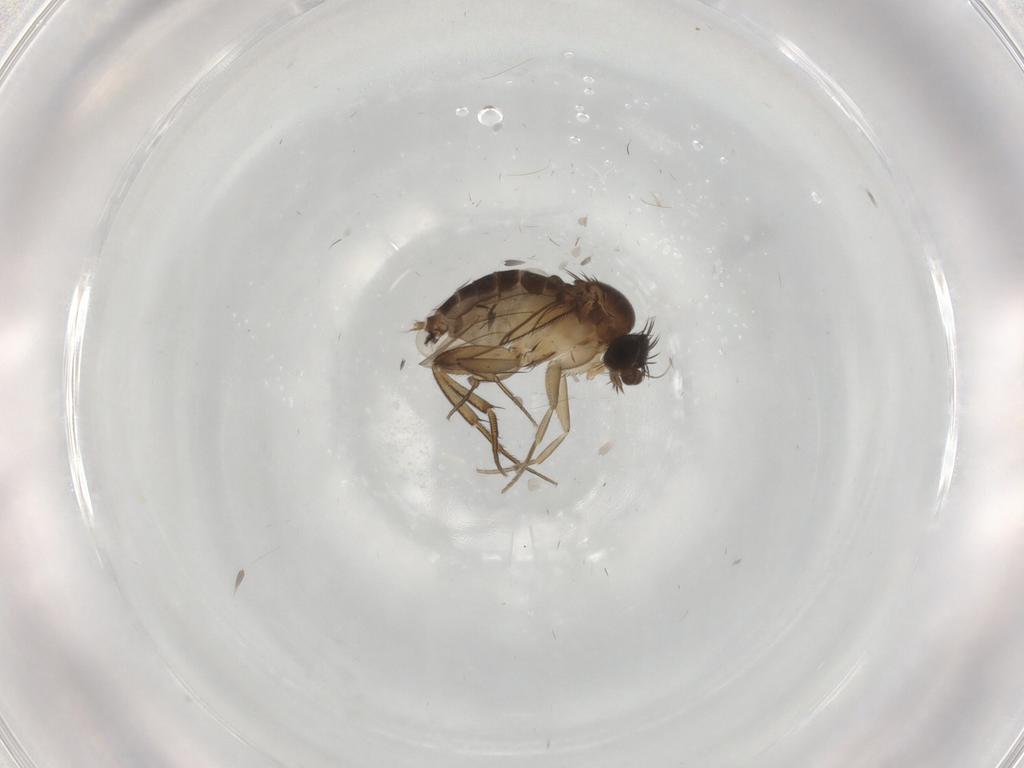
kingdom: Animalia
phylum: Arthropoda
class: Insecta
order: Diptera
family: Phoridae
